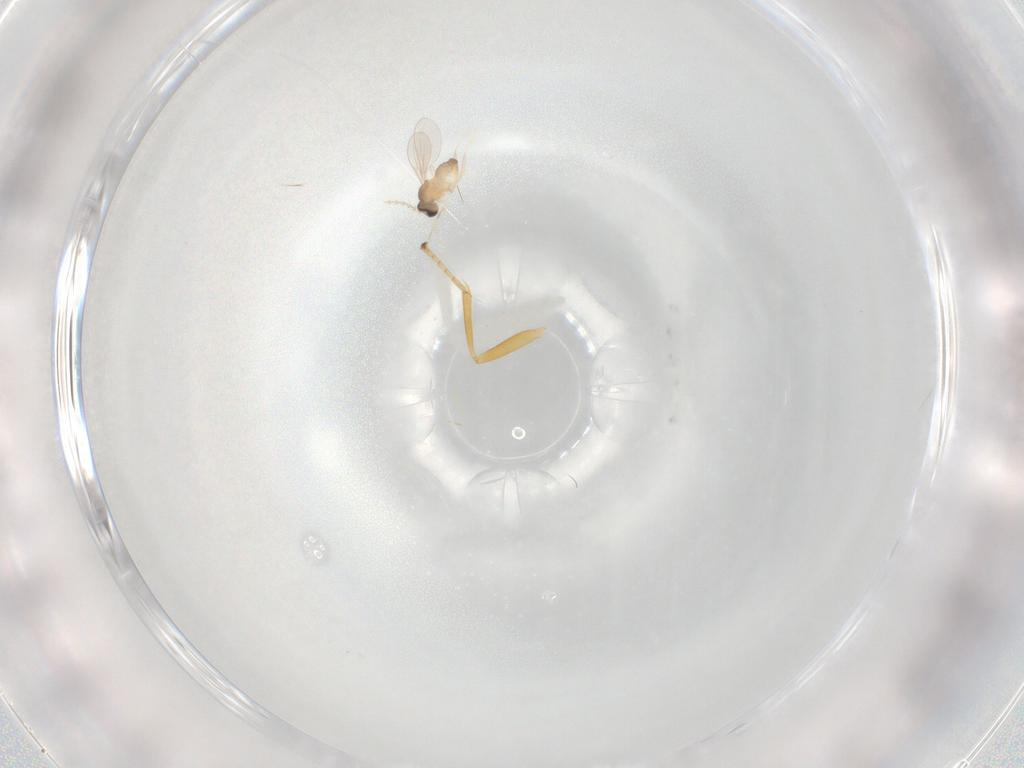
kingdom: Animalia
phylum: Arthropoda
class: Insecta
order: Diptera
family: Cecidomyiidae
